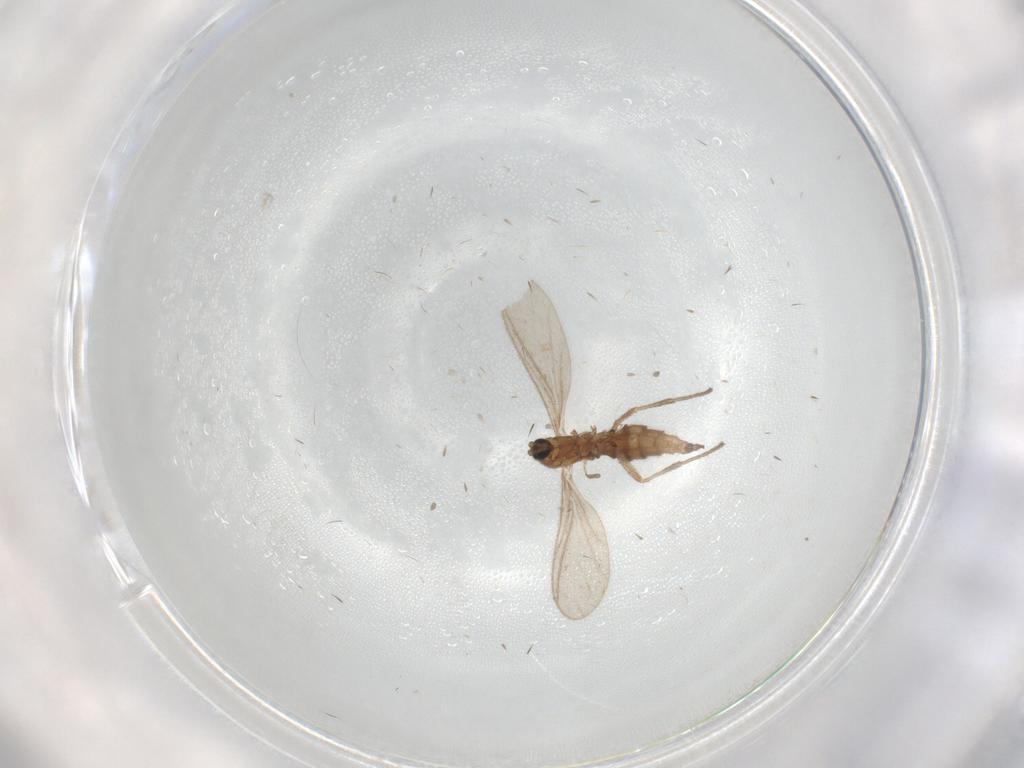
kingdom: Animalia
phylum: Arthropoda
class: Insecta
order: Diptera
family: Sciaridae
